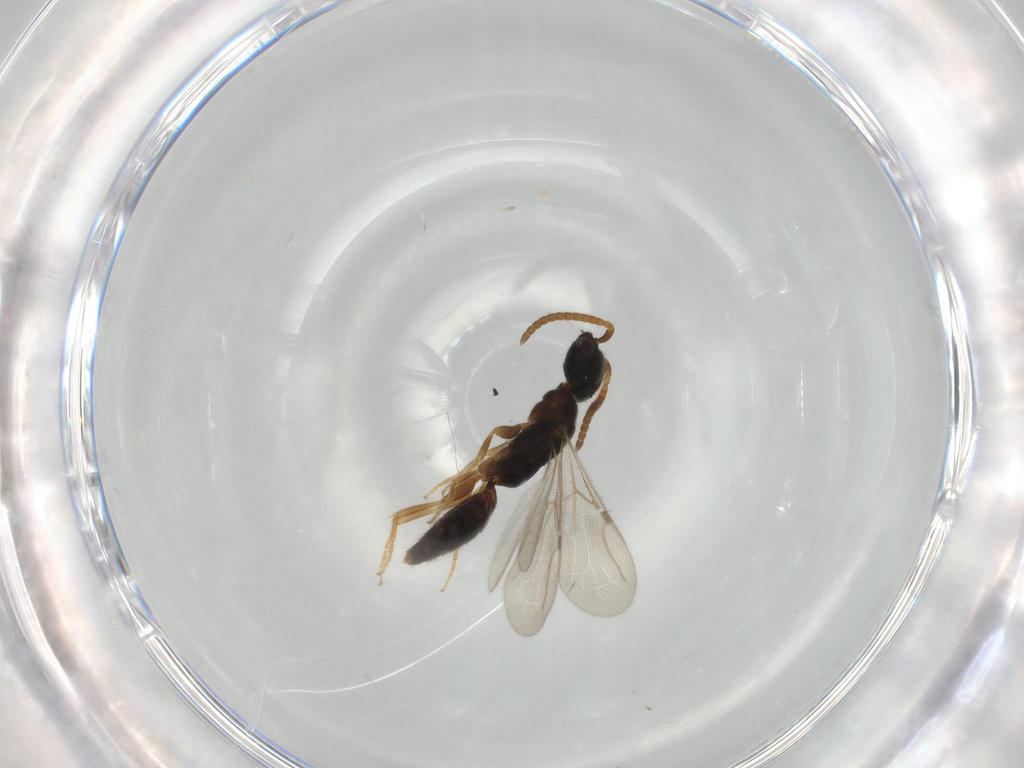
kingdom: Animalia
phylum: Arthropoda
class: Insecta
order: Hymenoptera
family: Bethylidae
